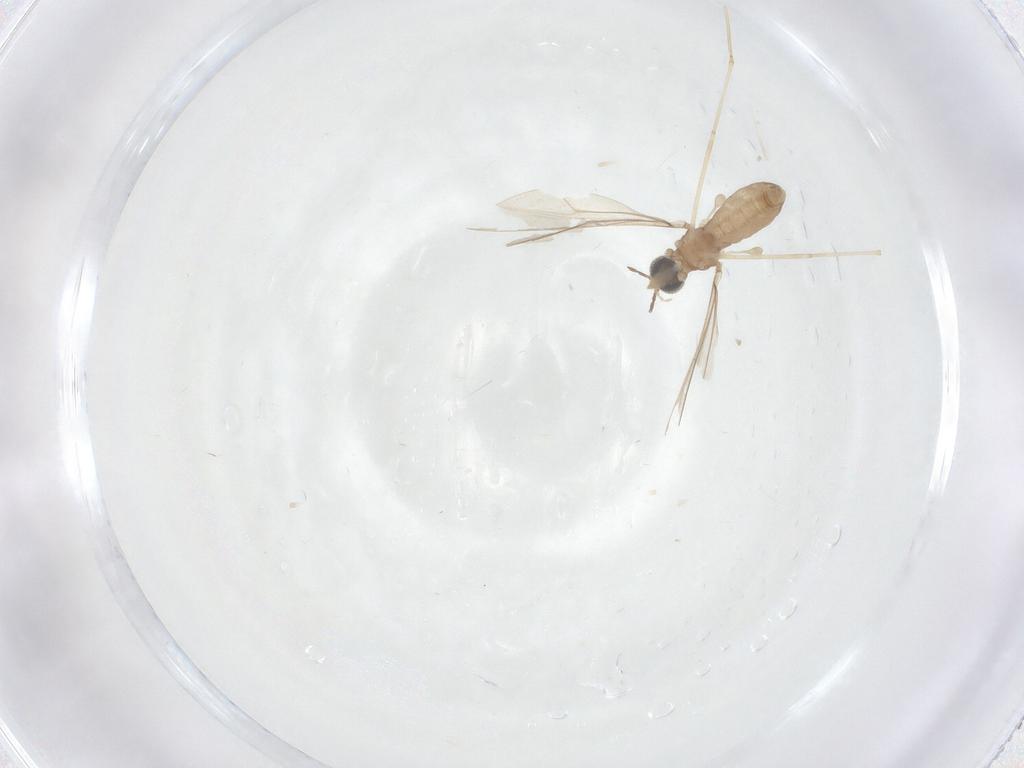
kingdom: Animalia
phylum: Arthropoda
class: Insecta
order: Diptera
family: Cecidomyiidae
